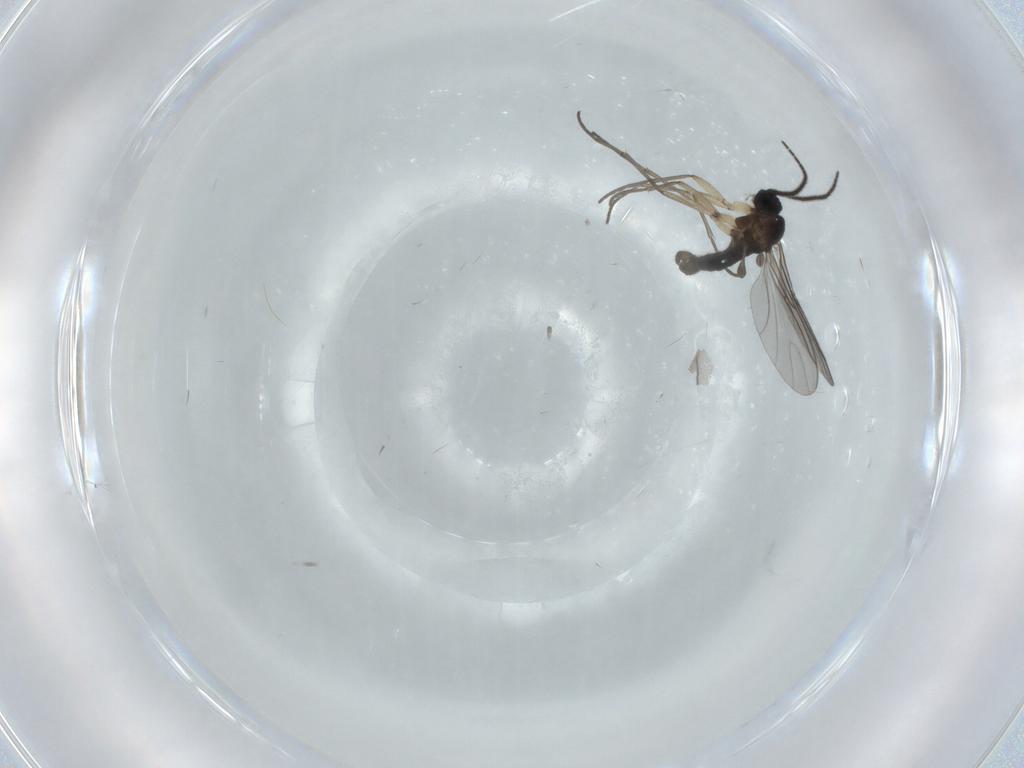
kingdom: Animalia
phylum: Arthropoda
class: Insecta
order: Diptera
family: Sciaridae
